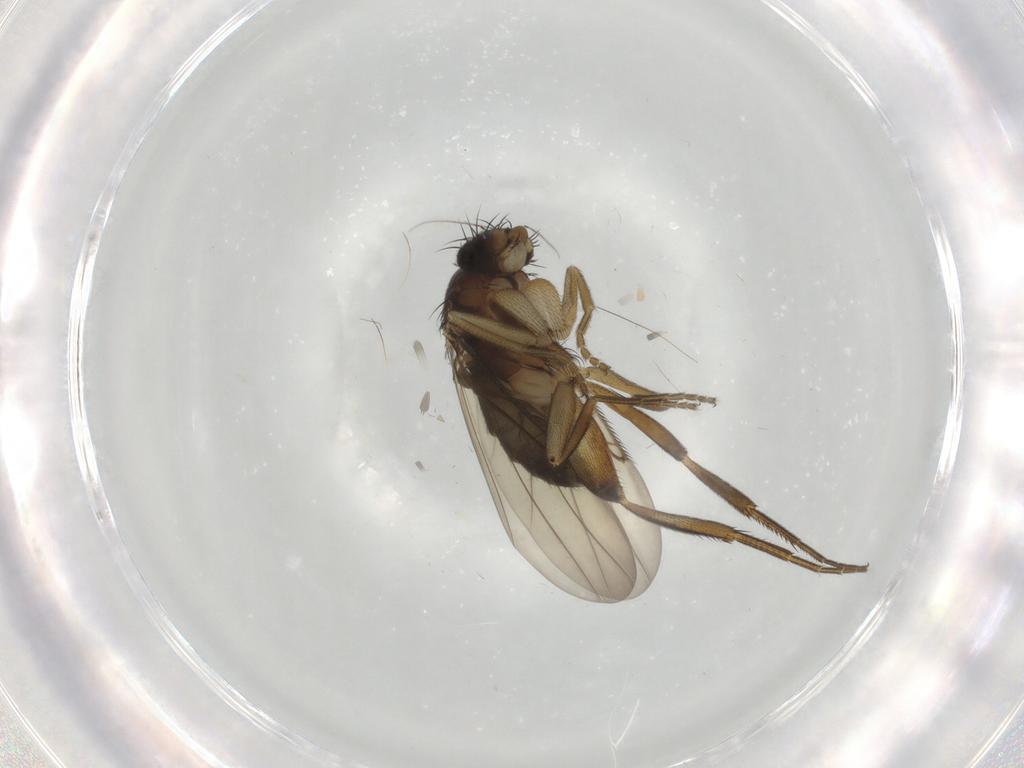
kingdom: Animalia
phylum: Arthropoda
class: Insecta
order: Diptera
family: Phoridae
